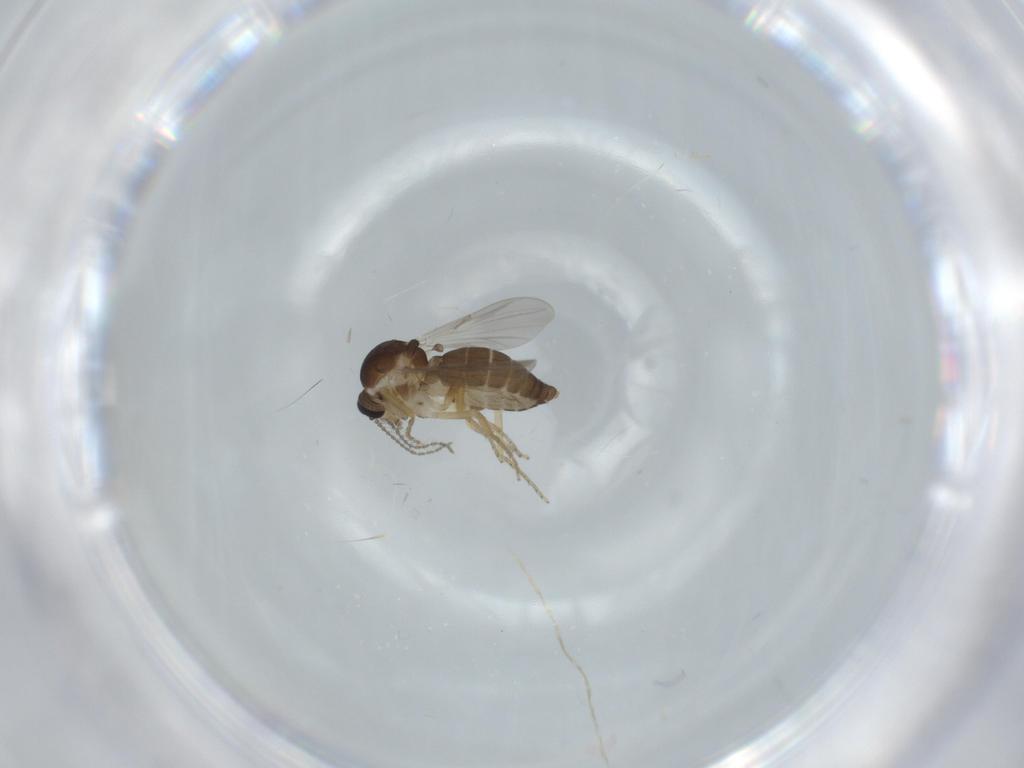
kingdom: Animalia
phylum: Arthropoda
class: Insecta
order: Diptera
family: Ceratopogonidae
